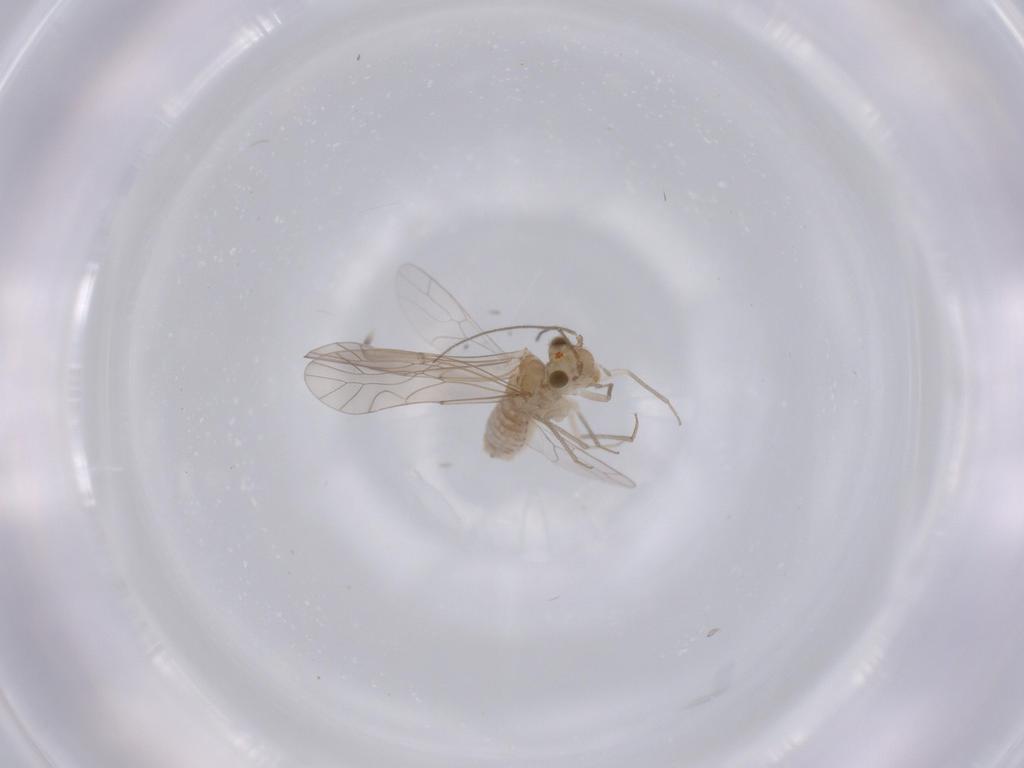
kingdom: Animalia
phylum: Arthropoda
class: Insecta
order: Psocodea
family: Lachesillidae
